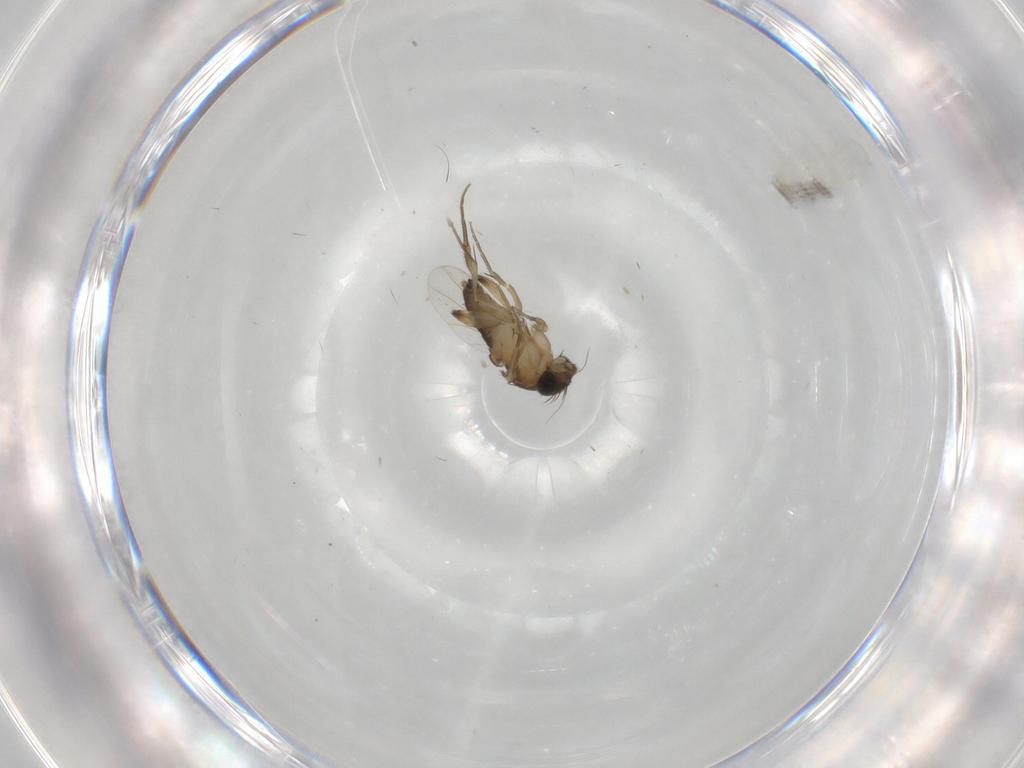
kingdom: Animalia
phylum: Arthropoda
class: Insecta
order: Diptera
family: Phoridae
